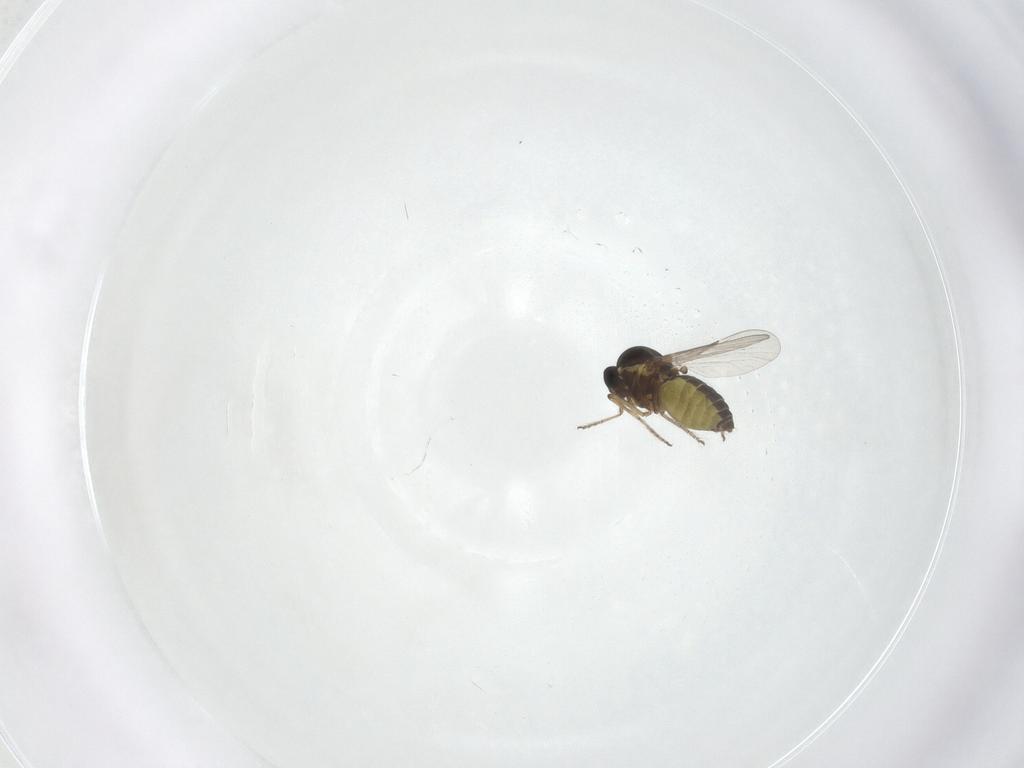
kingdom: Animalia
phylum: Arthropoda
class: Insecta
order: Diptera
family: Ceratopogonidae
